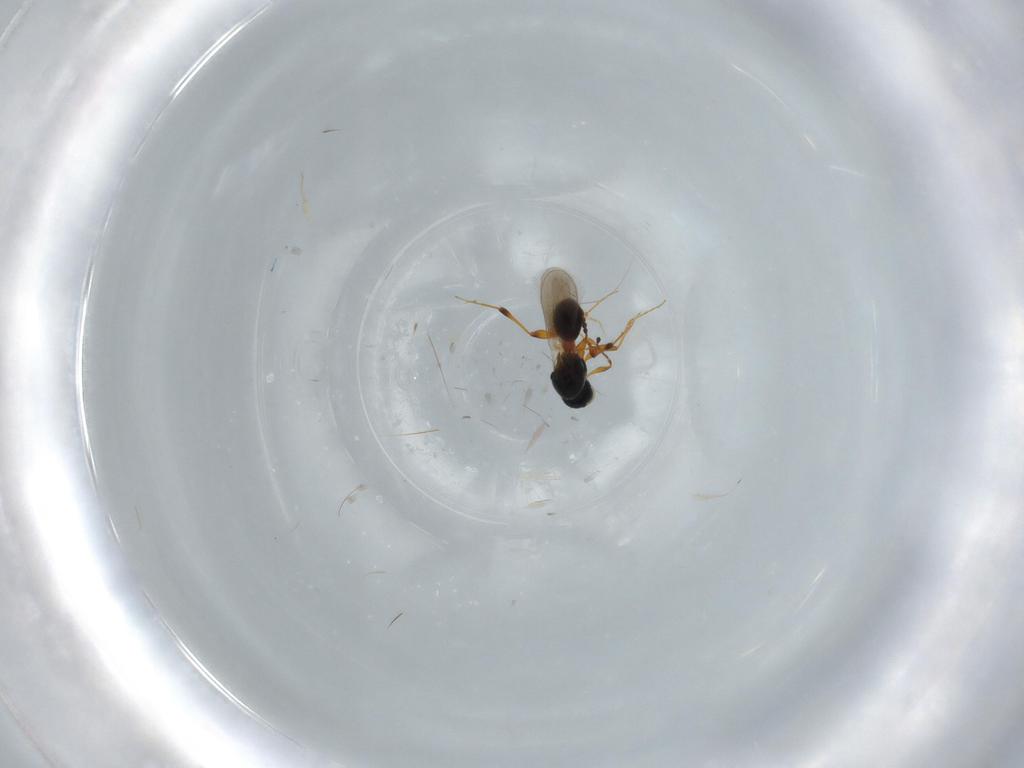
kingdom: Animalia
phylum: Arthropoda
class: Insecta
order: Hymenoptera
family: Platygastridae
